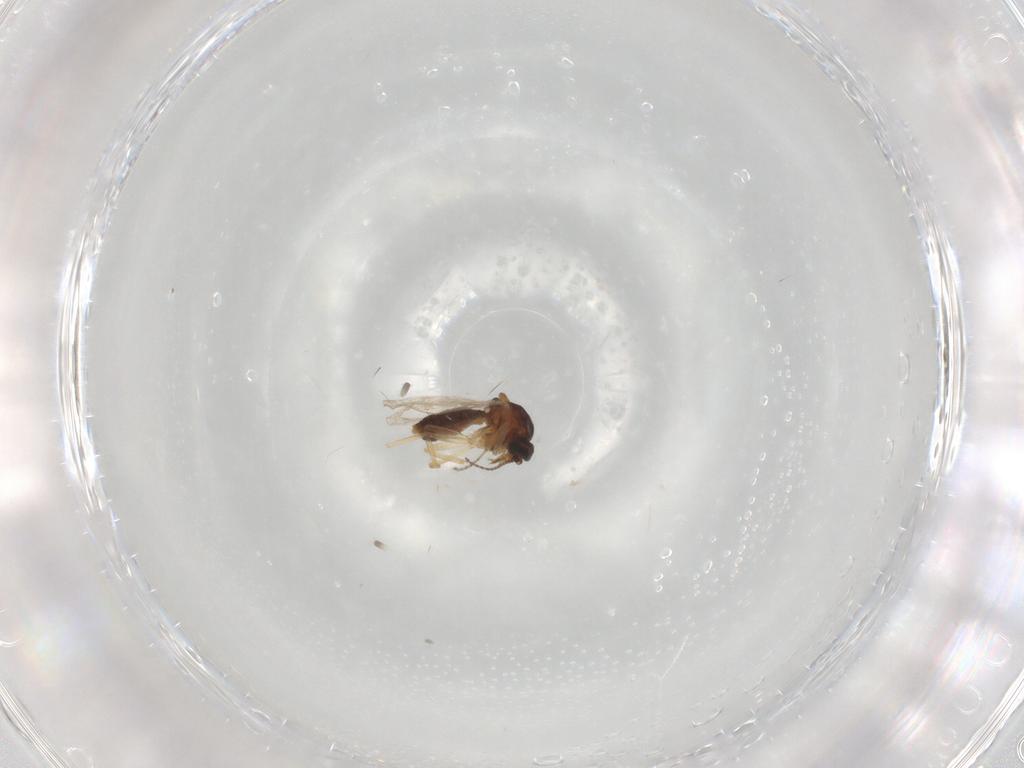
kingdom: Animalia
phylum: Arthropoda
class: Insecta
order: Diptera
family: Ceratopogonidae
